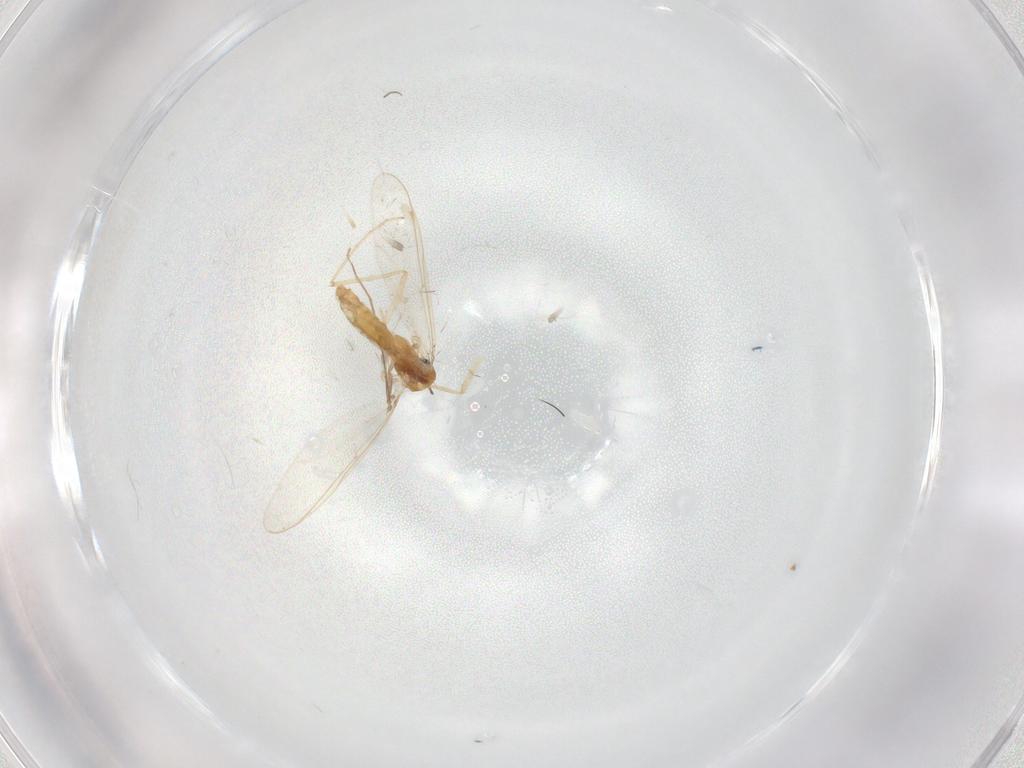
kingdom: Animalia
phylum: Arthropoda
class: Insecta
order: Diptera
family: Chironomidae
